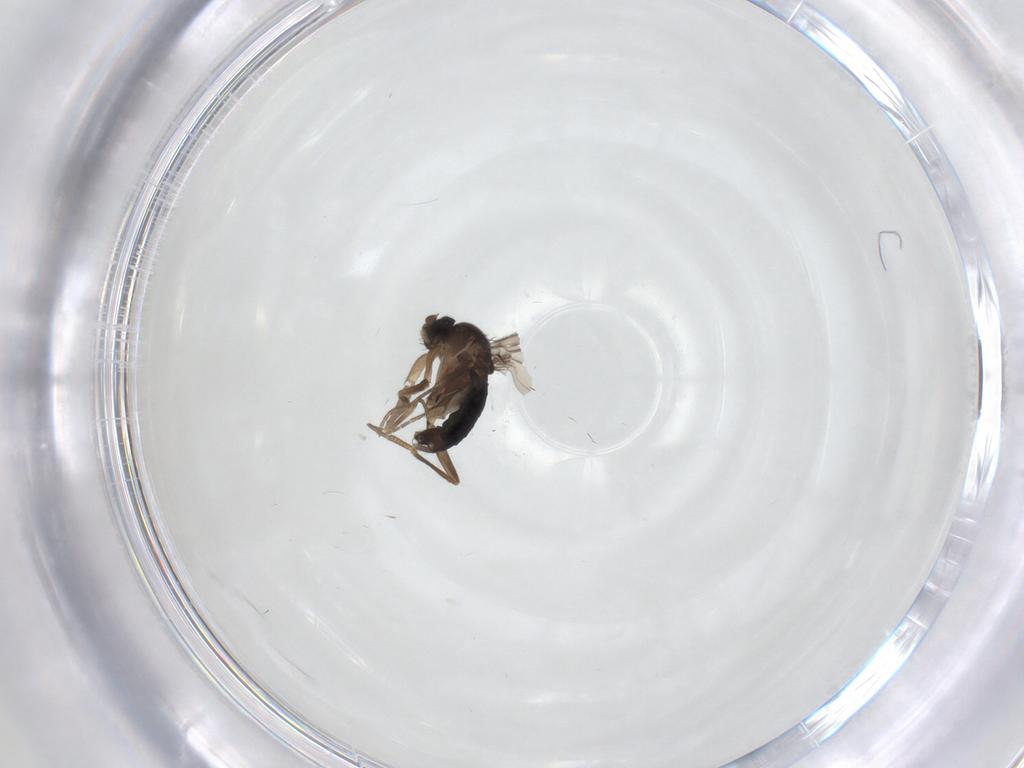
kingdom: Animalia
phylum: Arthropoda
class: Insecta
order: Diptera
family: Phoridae
